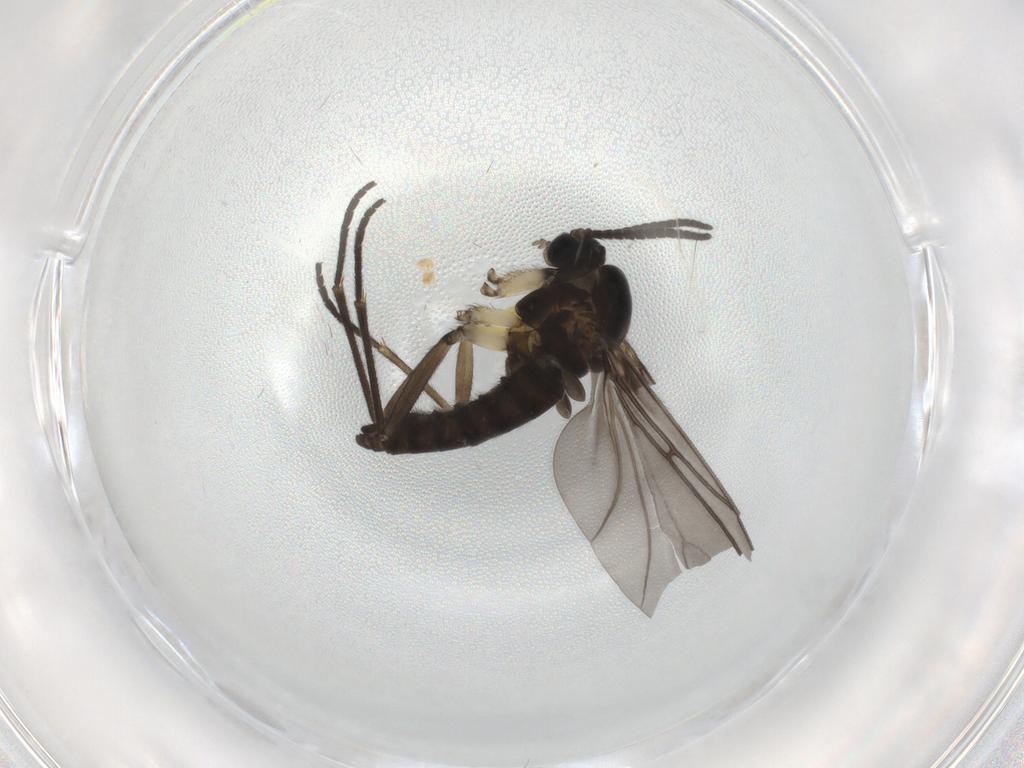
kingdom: Animalia
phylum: Arthropoda
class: Insecta
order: Diptera
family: Sciaridae
